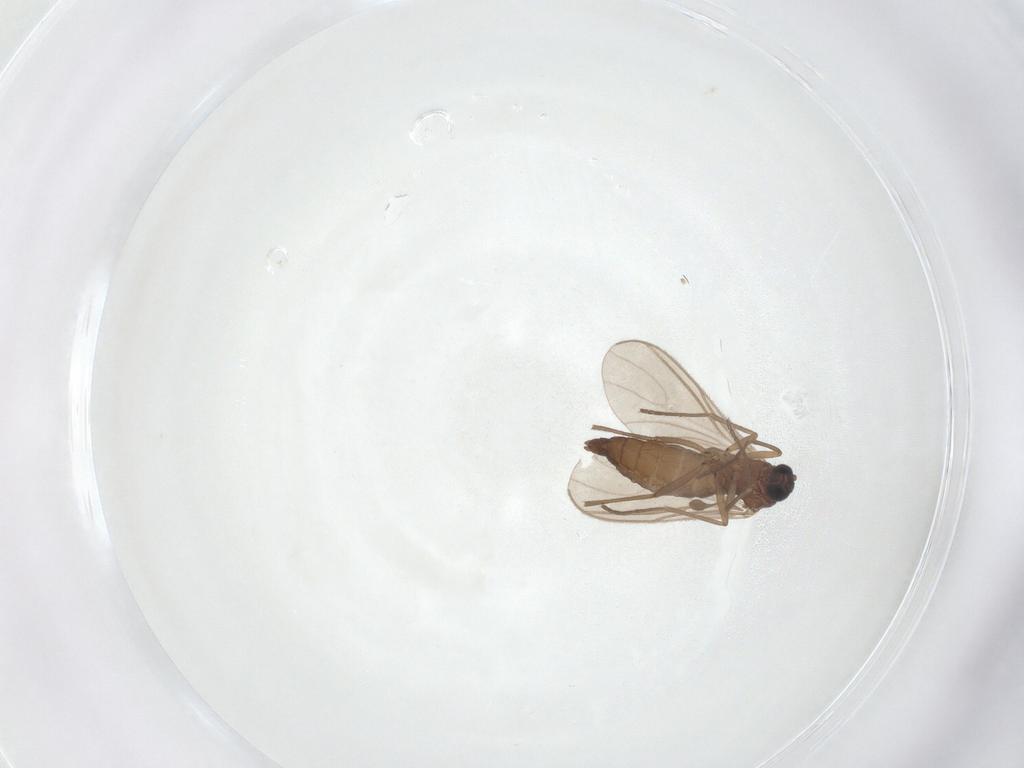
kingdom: Animalia
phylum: Arthropoda
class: Insecta
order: Diptera
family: Sciaridae
